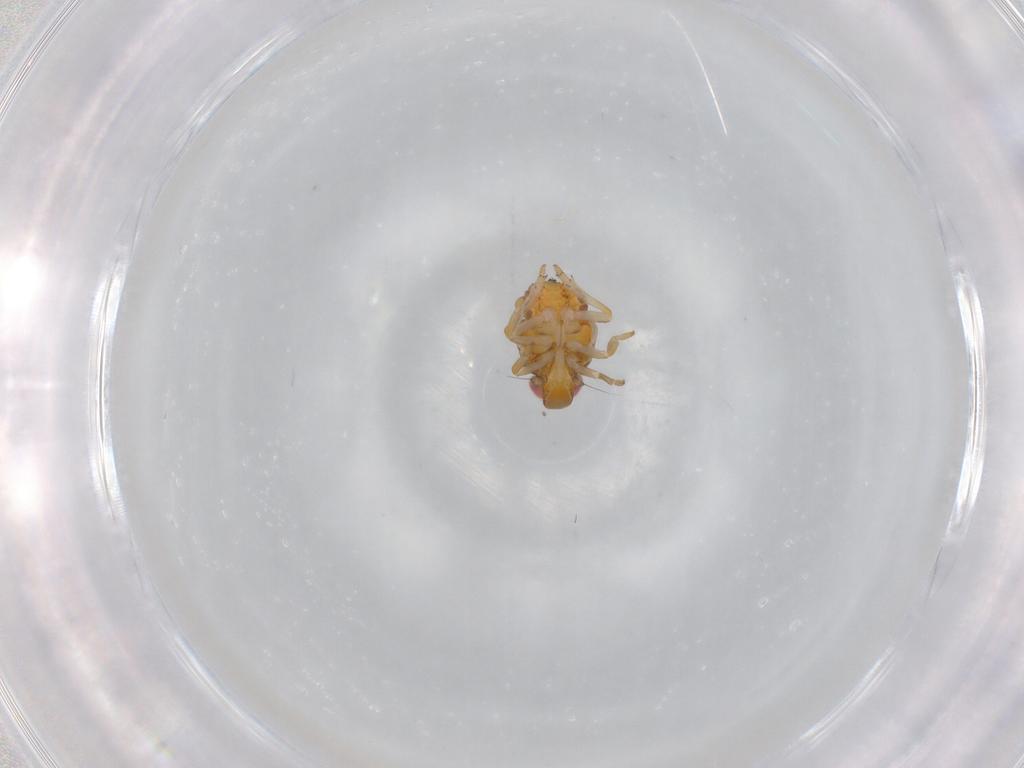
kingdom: Animalia
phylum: Arthropoda
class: Insecta
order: Hemiptera
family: Issidae
